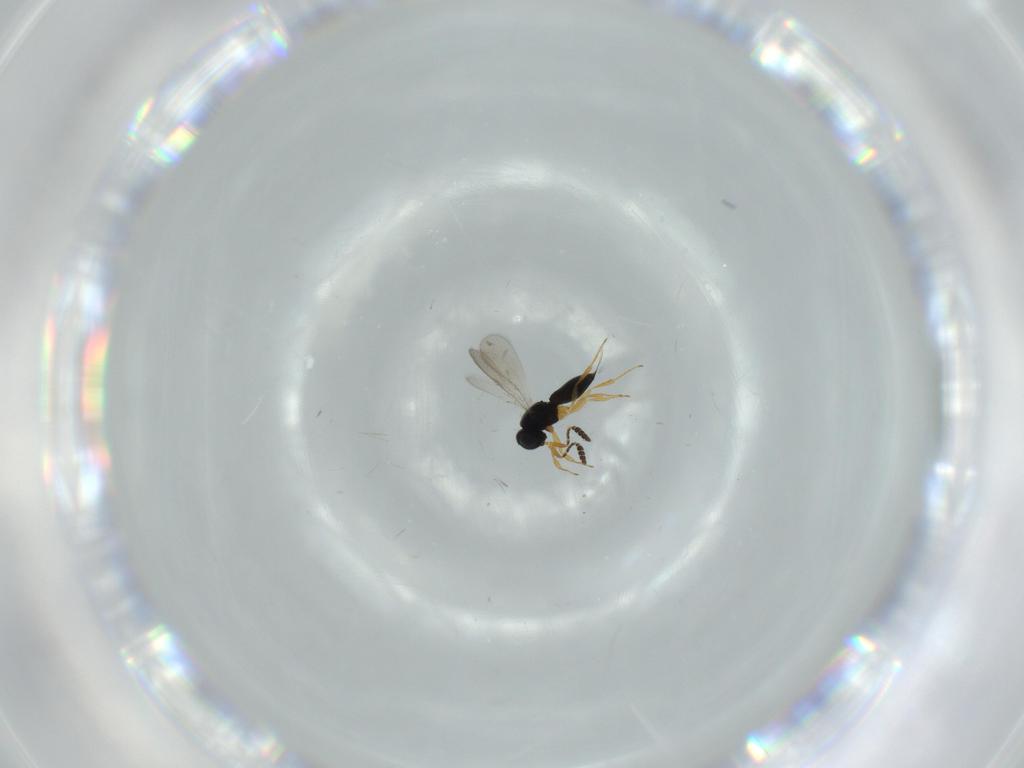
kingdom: Animalia
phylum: Arthropoda
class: Insecta
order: Hymenoptera
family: Scelionidae
